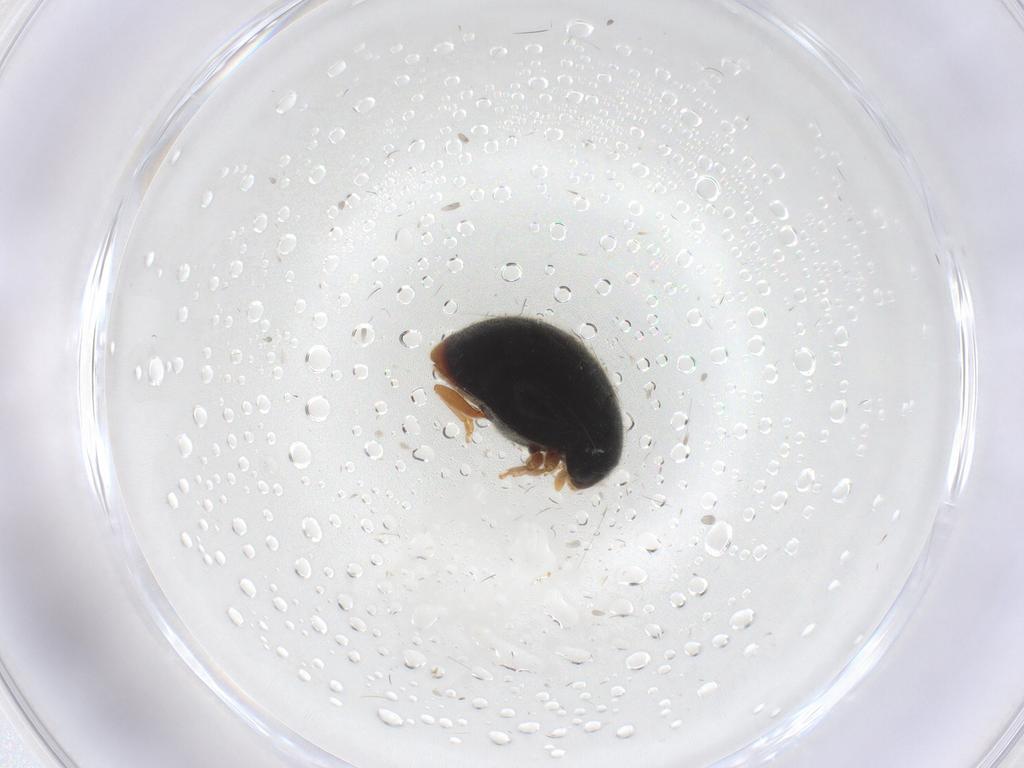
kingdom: Animalia
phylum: Arthropoda
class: Insecta
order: Coleoptera
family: Coccinellidae
